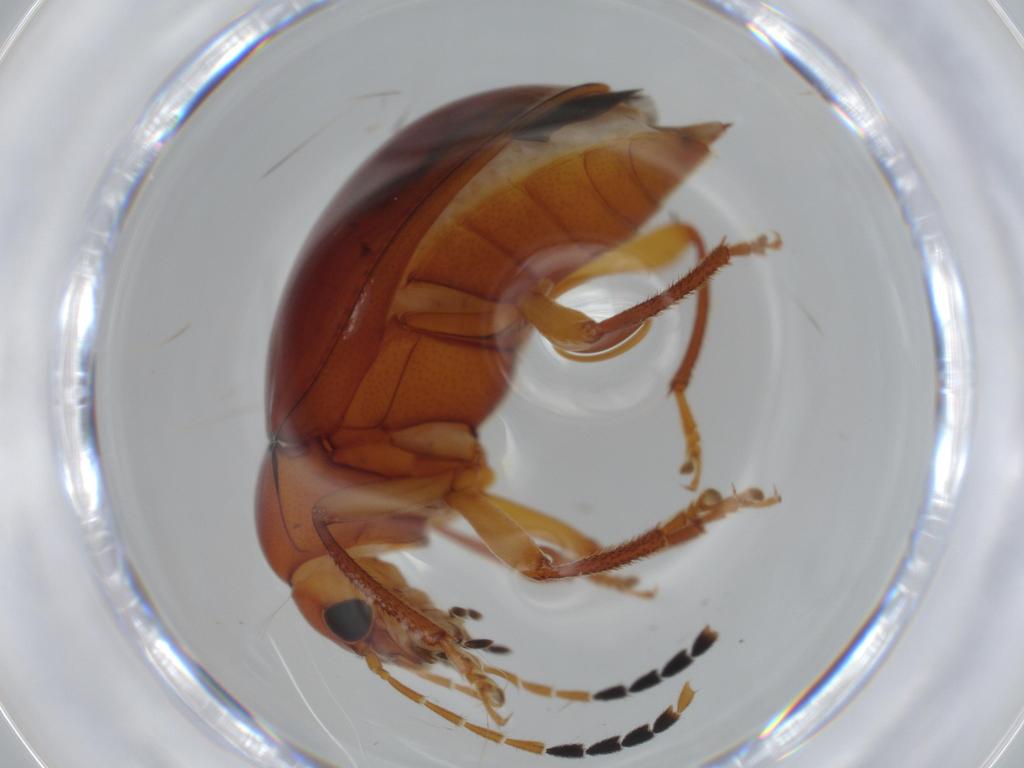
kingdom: Animalia
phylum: Arthropoda
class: Insecta
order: Coleoptera
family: Ptilodactylidae
